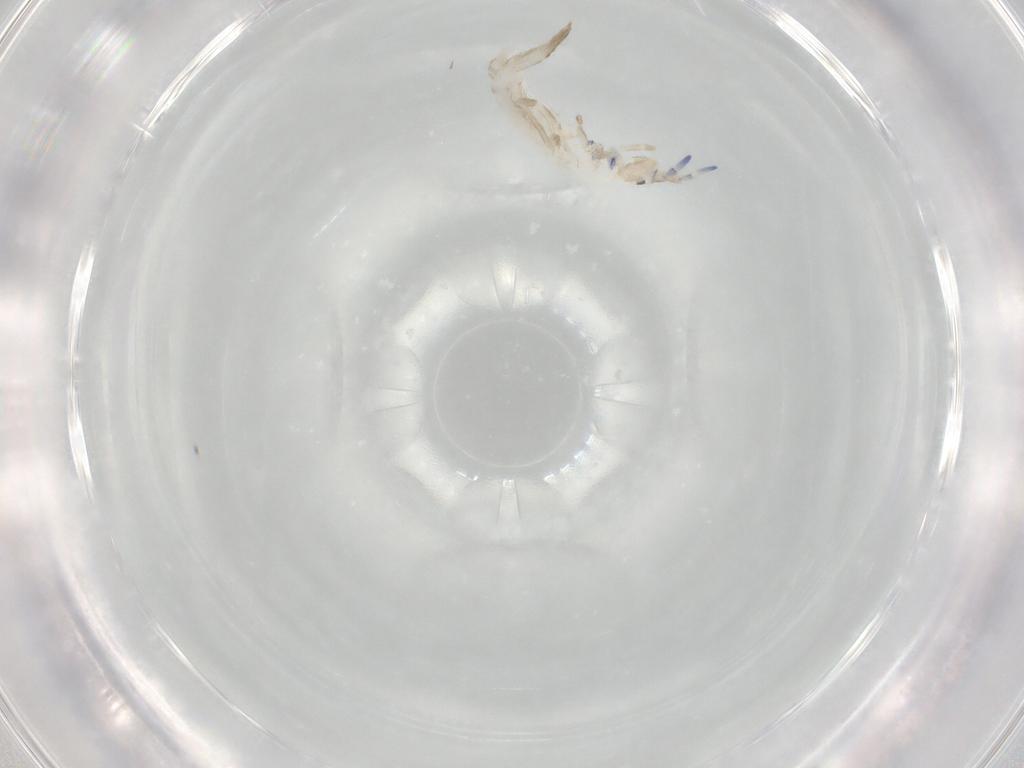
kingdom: Animalia
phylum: Arthropoda
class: Collembola
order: Entomobryomorpha
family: Entomobryidae
